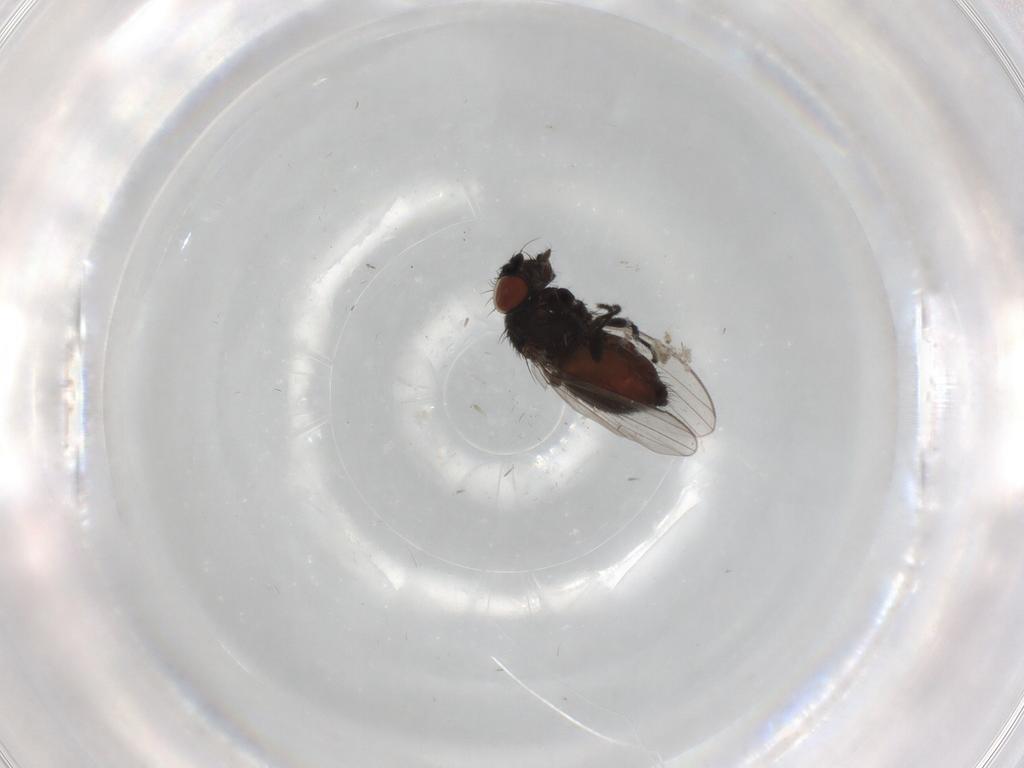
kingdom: Animalia
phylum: Arthropoda
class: Insecta
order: Diptera
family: Milichiidae
